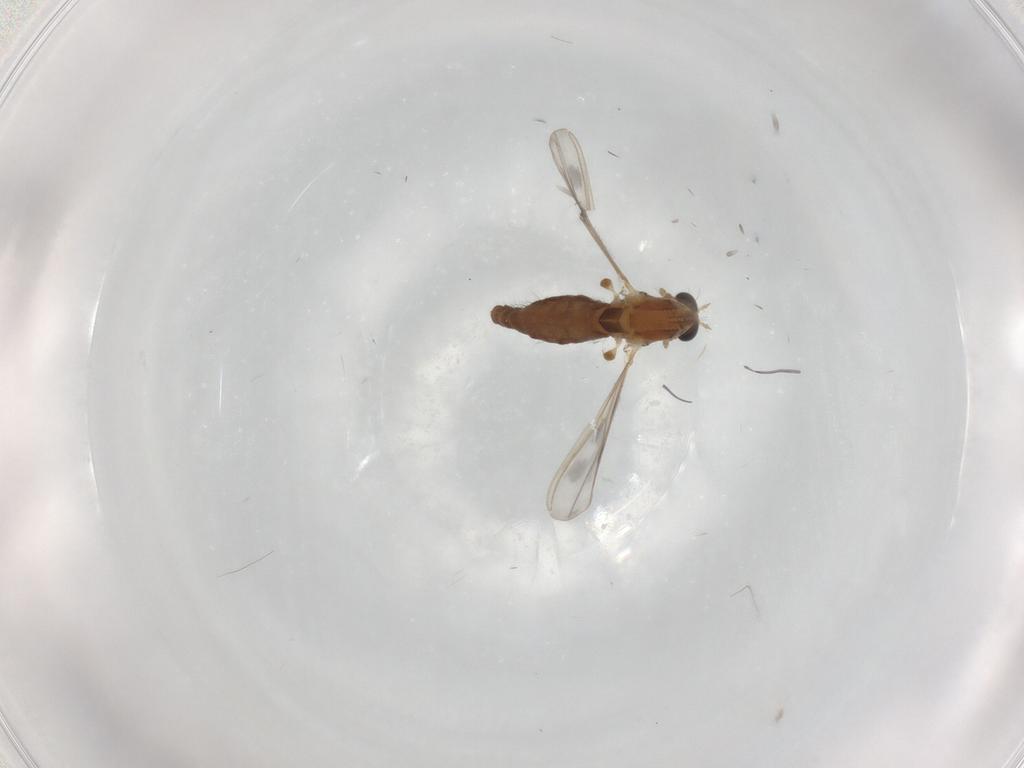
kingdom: Animalia
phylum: Arthropoda
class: Insecta
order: Diptera
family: Chironomidae
